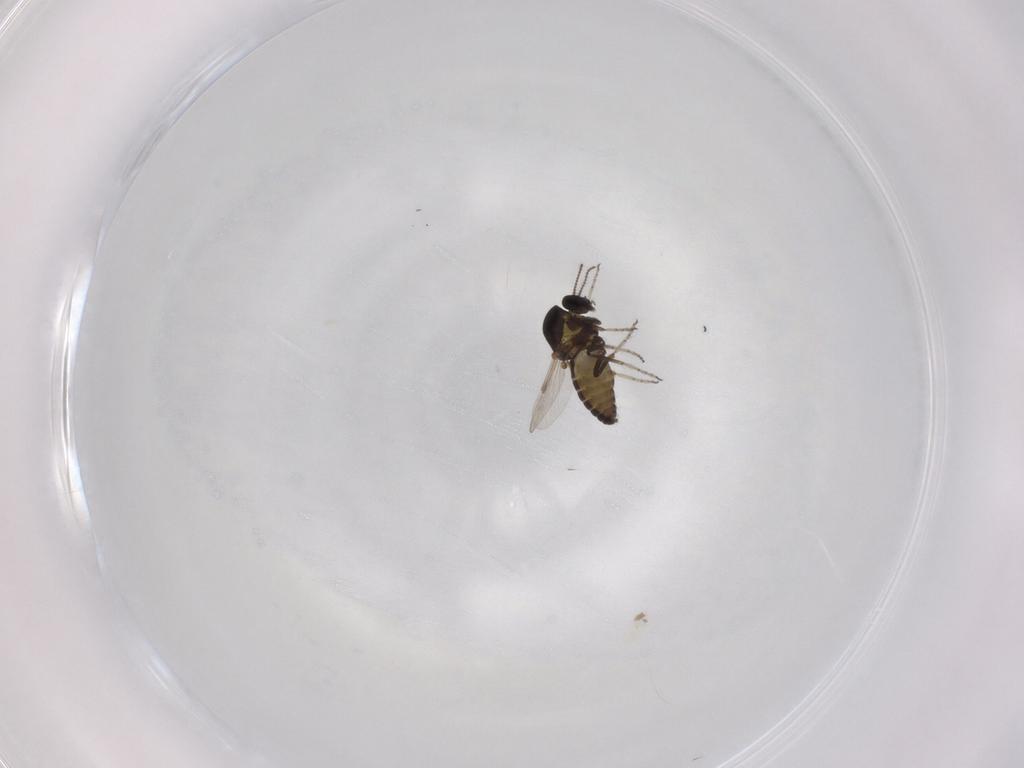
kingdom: Animalia
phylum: Arthropoda
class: Insecta
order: Diptera
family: Ceratopogonidae
